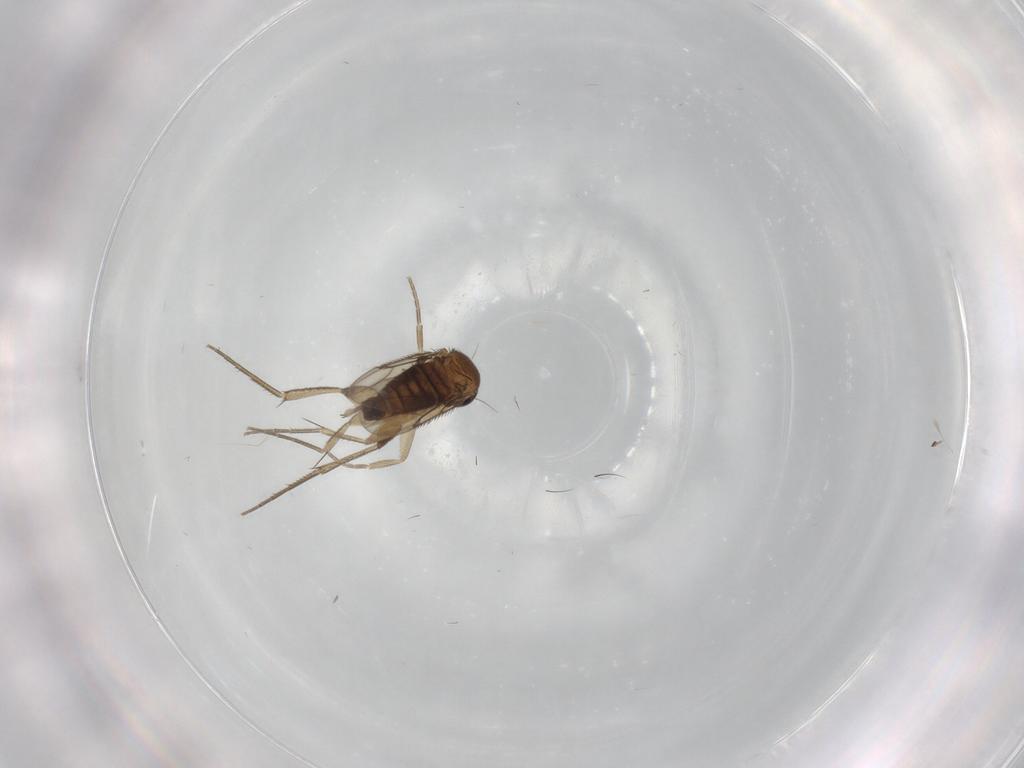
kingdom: Animalia
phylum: Arthropoda
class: Insecta
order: Diptera
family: Phoridae
